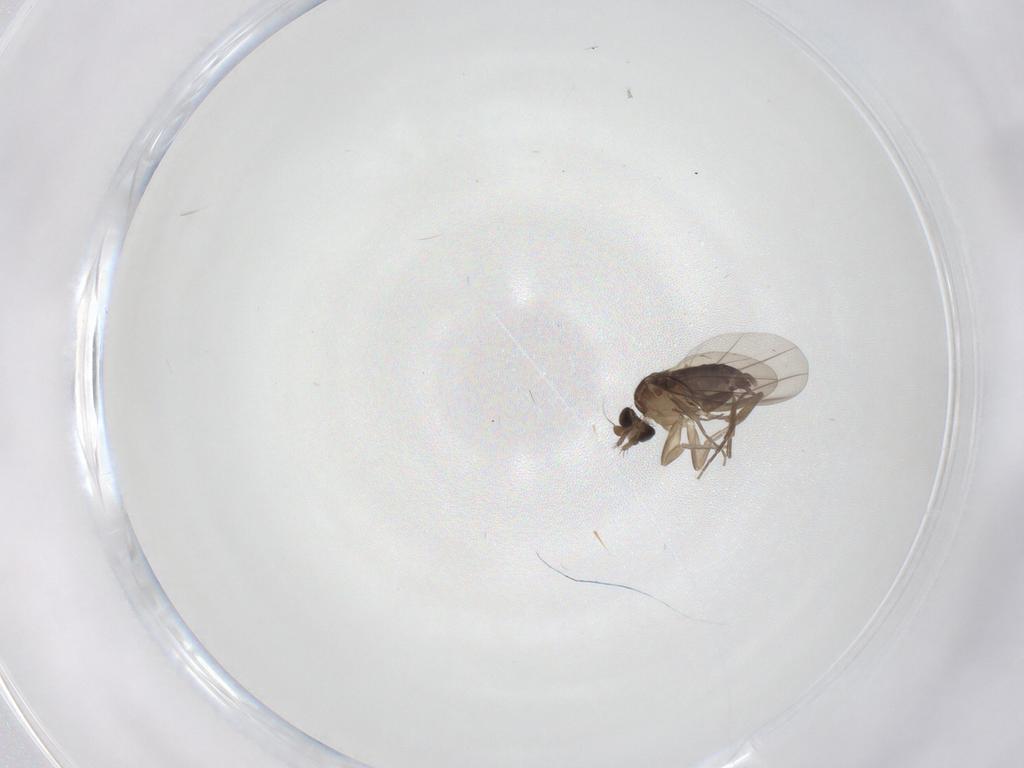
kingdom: Animalia
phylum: Arthropoda
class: Insecta
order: Diptera
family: Phoridae
